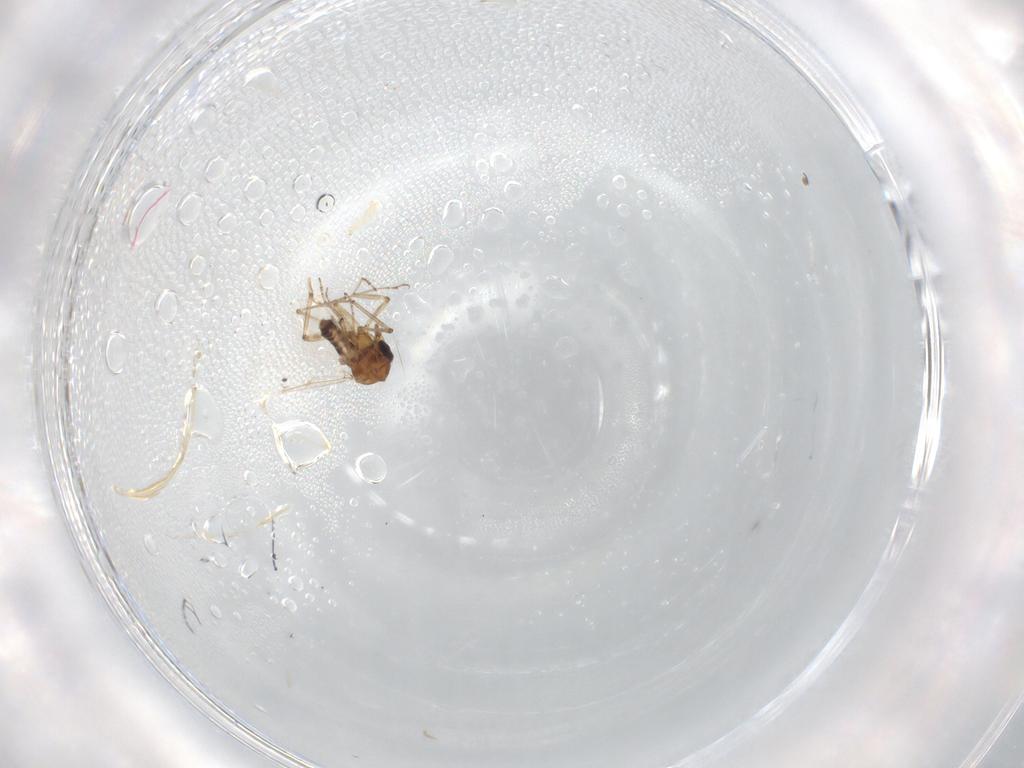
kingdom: Animalia
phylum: Arthropoda
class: Insecta
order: Diptera
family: Ceratopogonidae
